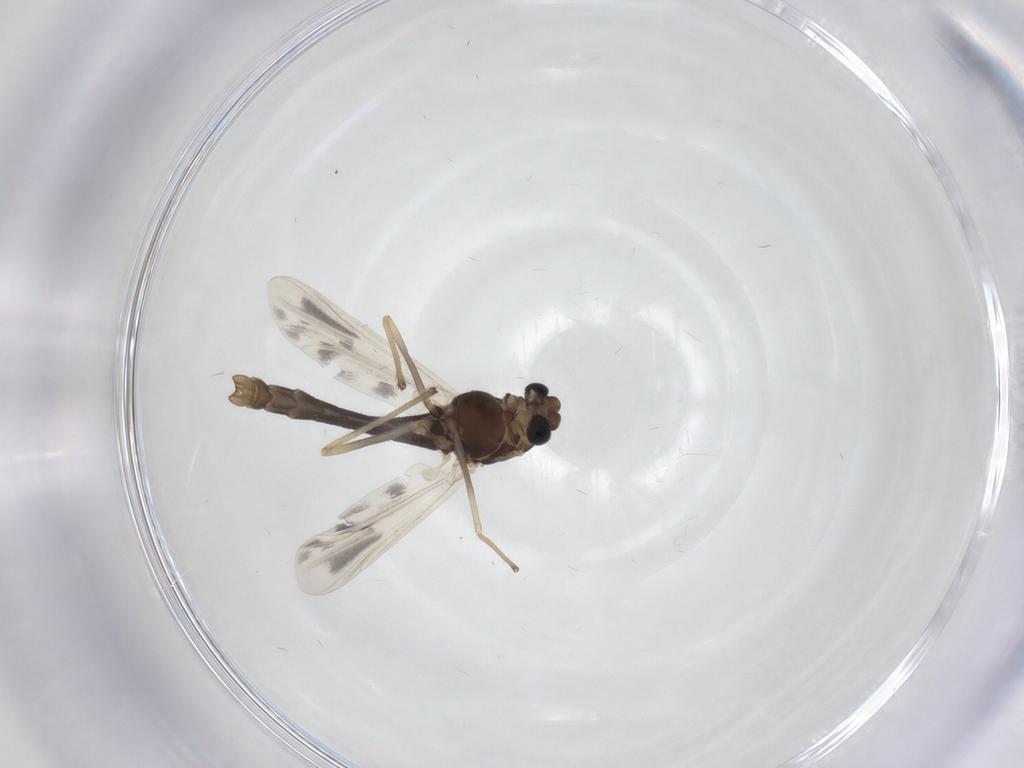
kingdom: Animalia
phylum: Arthropoda
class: Insecta
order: Diptera
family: Chironomidae
